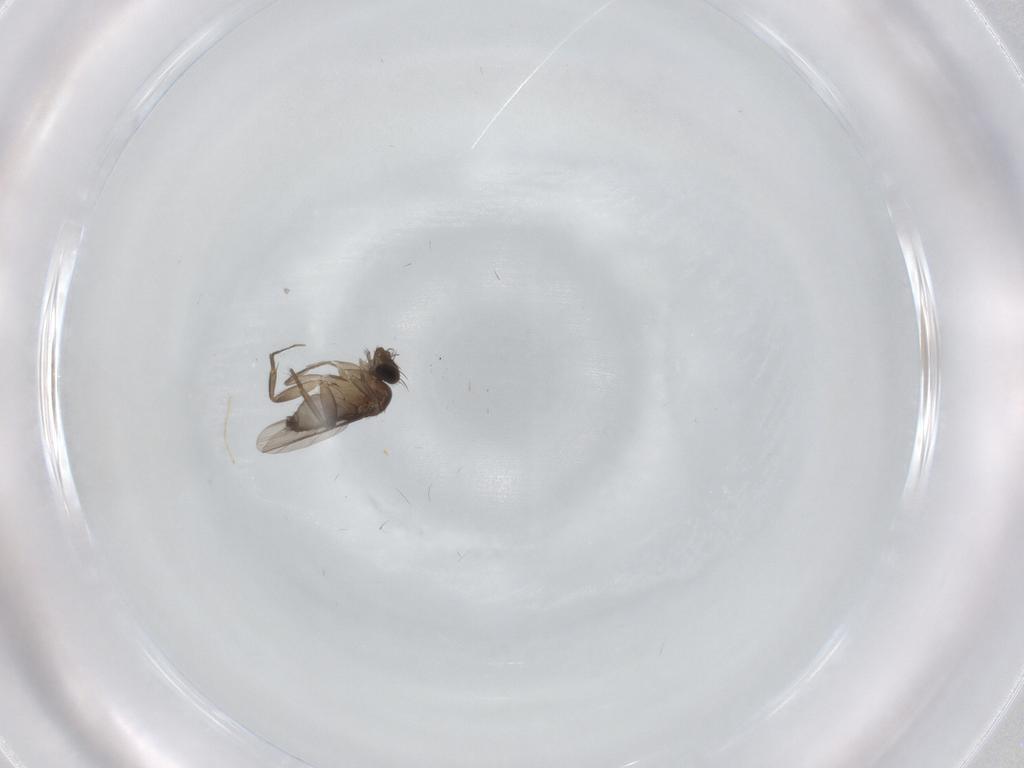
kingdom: Animalia
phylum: Arthropoda
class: Insecta
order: Diptera
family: Phoridae
